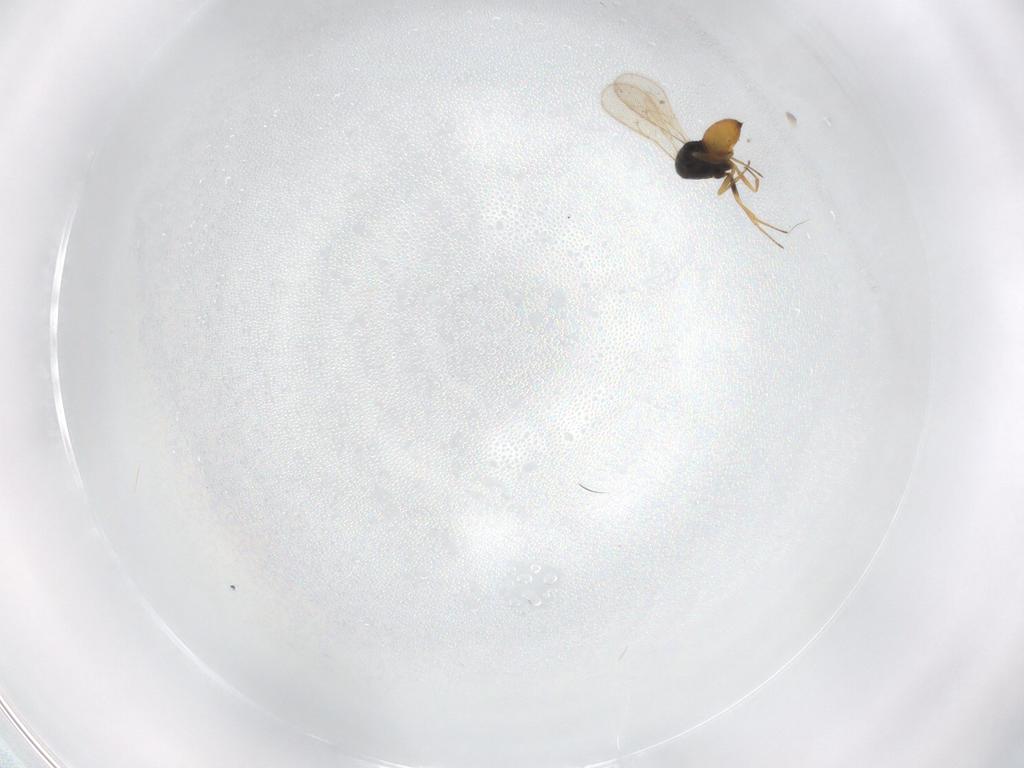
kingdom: Animalia
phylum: Arthropoda
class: Insecta
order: Hymenoptera
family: Scelionidae
